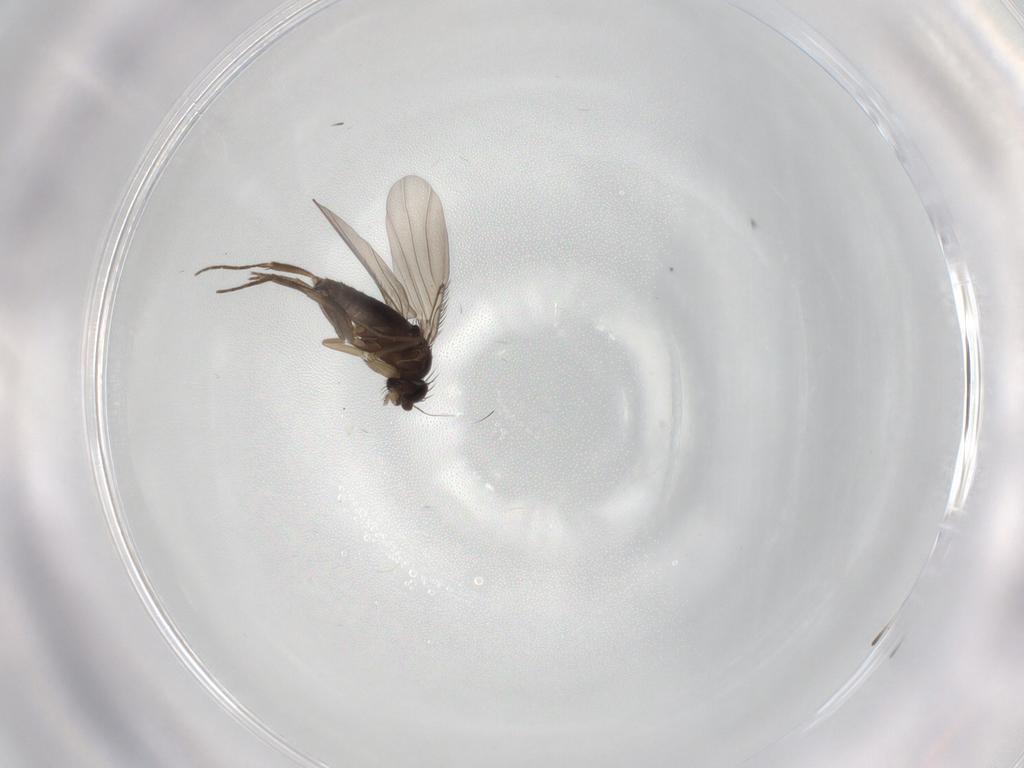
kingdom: Animalia
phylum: Arthropoda
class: Insecta
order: Diptera
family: Phoridae
